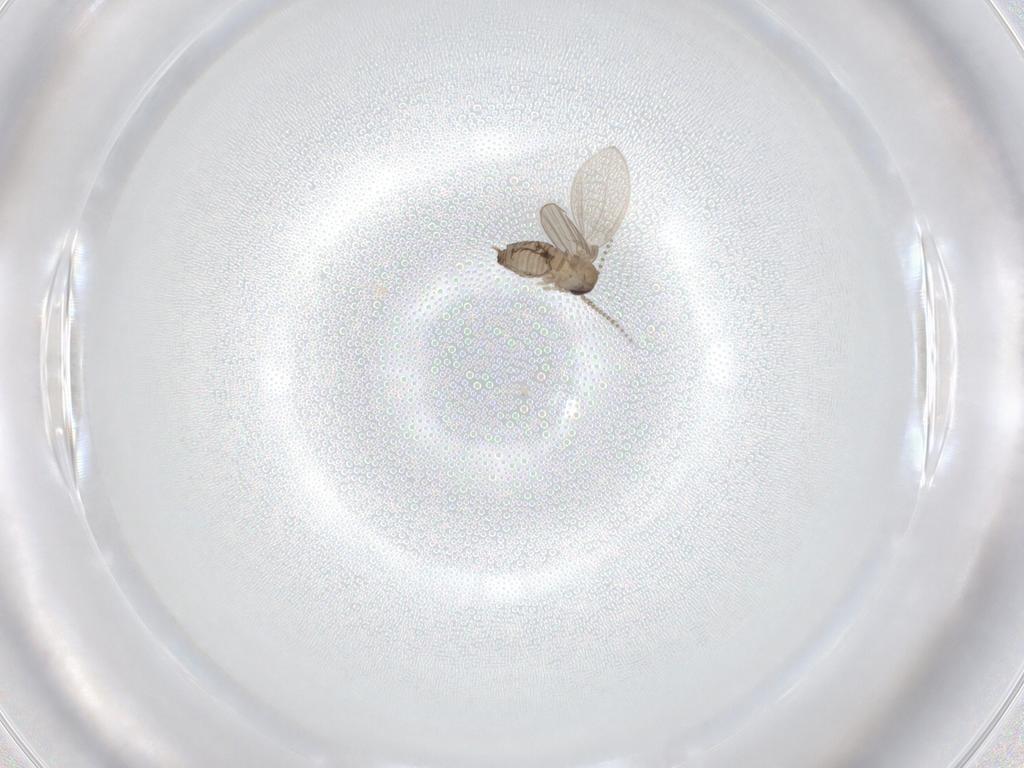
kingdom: Animalia
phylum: Arthropoda
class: Insecta
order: Diptera
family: Psychodidae
